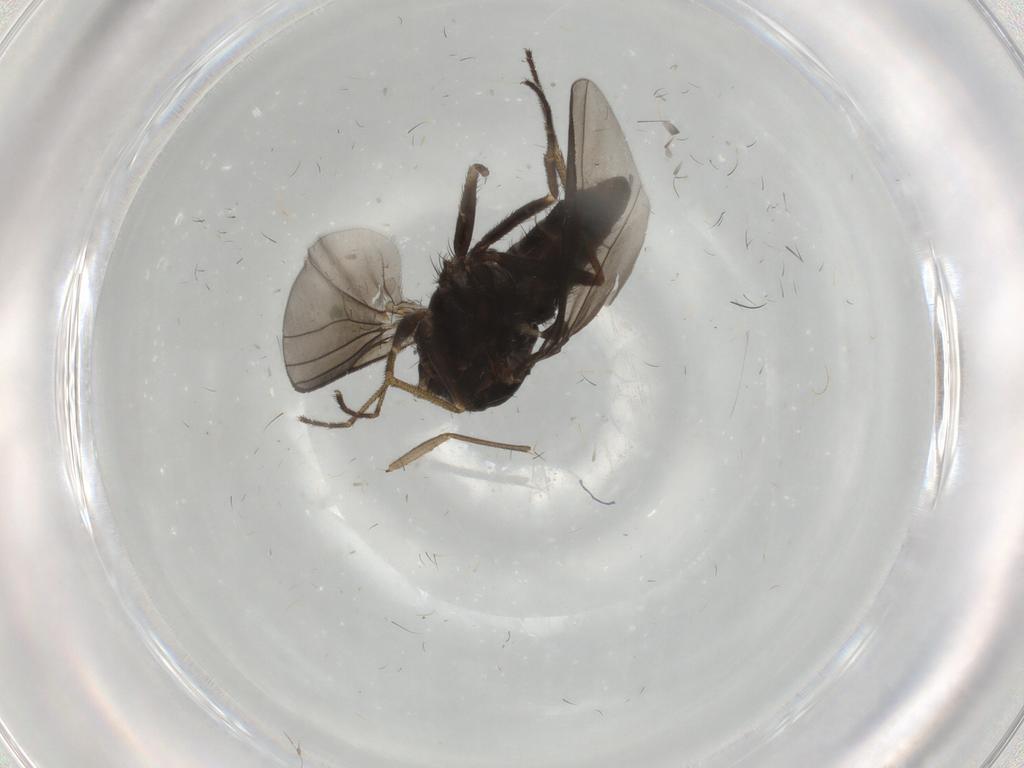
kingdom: Animalia
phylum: Arthropoda
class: Insecta
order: Diptera
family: Dolichopodidae
